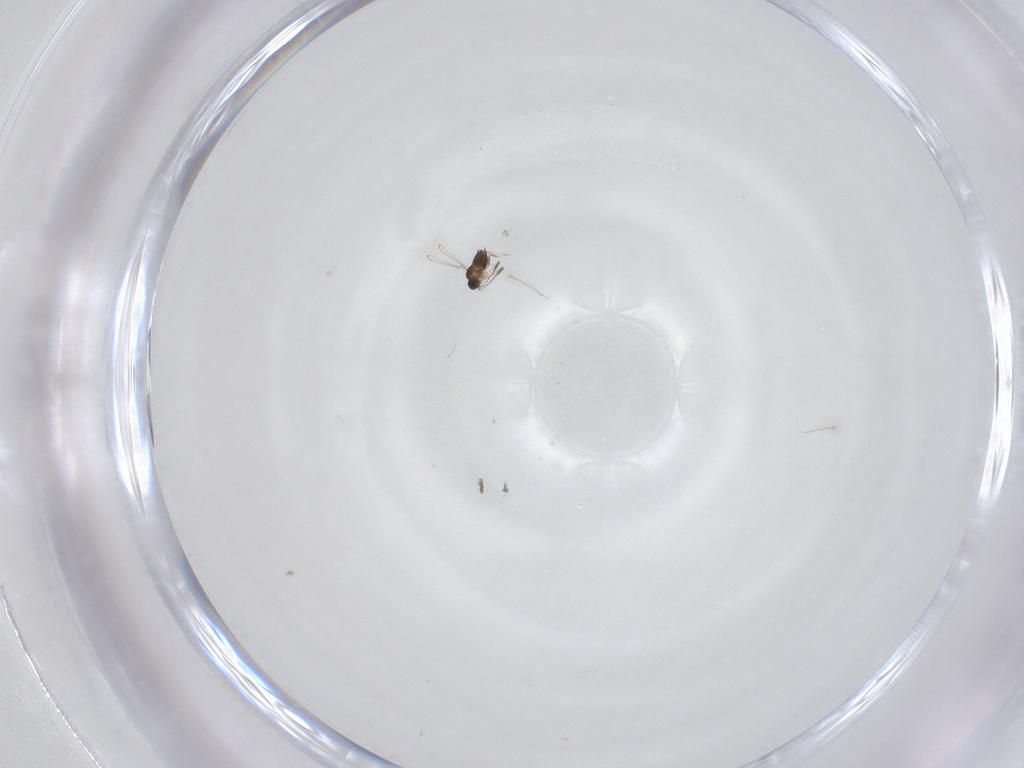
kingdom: Animalia
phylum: Arthropoda
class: Insecta
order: Hymenoptera
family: Mymaridae
